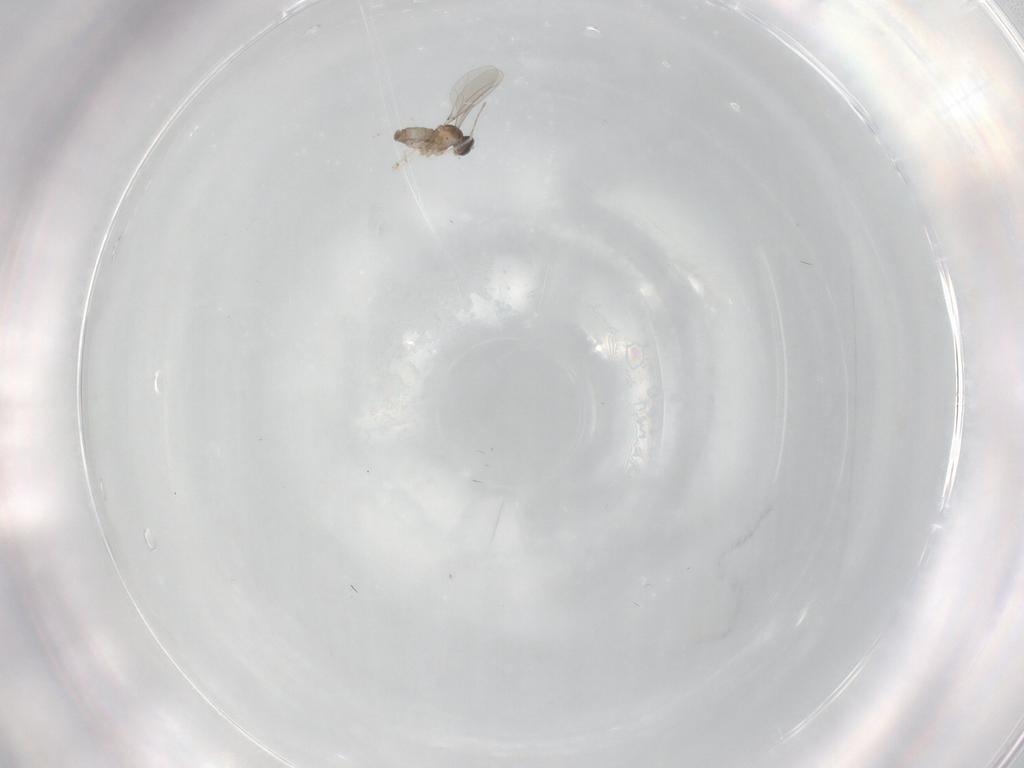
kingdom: Animalia
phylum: Arthropoda
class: Insecta
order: Diptera
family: Cecidomyiidae
